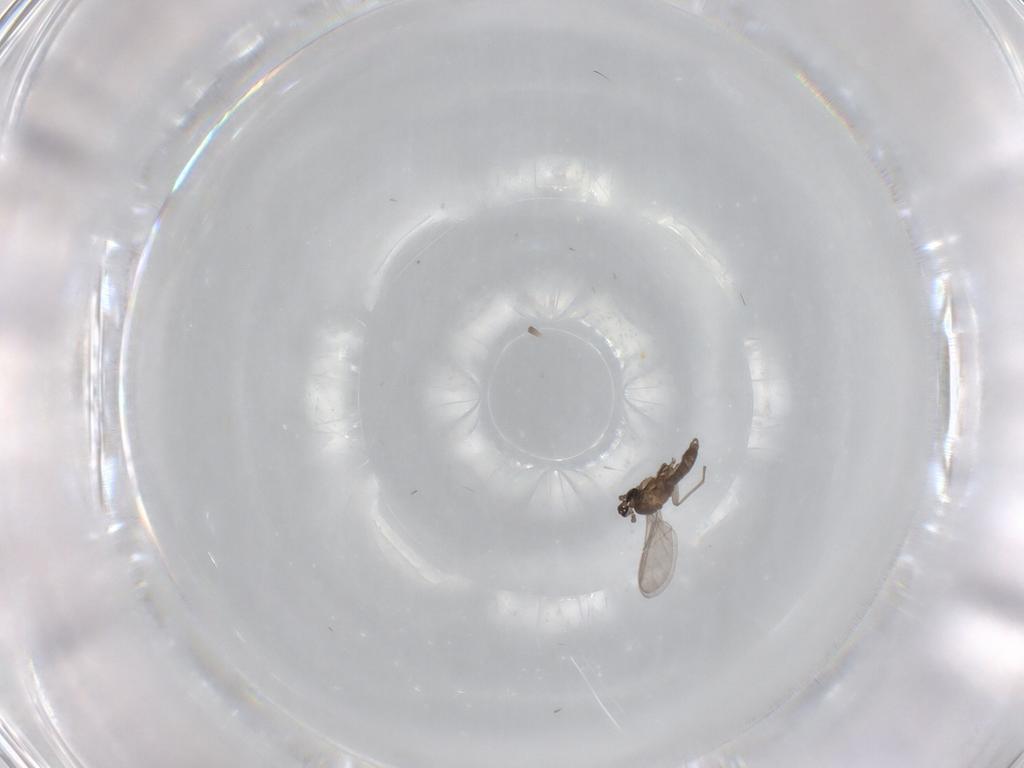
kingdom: Animalia
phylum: Arthropoda
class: Insecta
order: Diptera
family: Sciaridae
